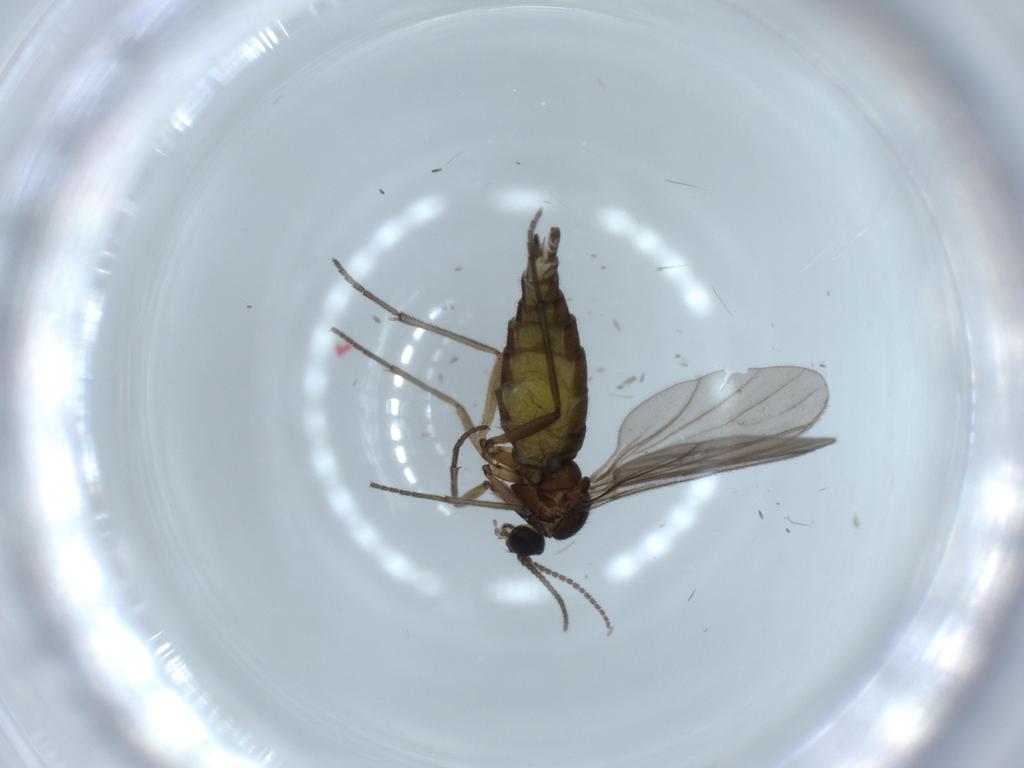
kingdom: Animalia
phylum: Arthropoda
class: Insecta
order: Diptera
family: Sciaridae
